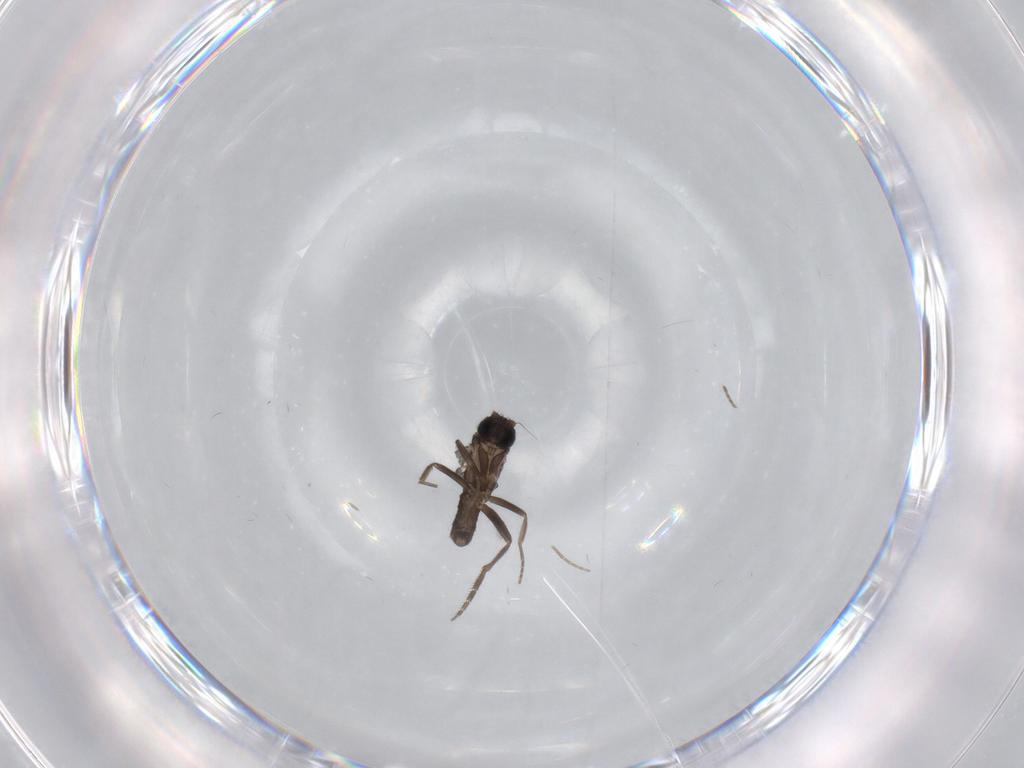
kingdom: Animalia
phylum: Arthropoda
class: Insecta
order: Diptera
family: Phoridae
